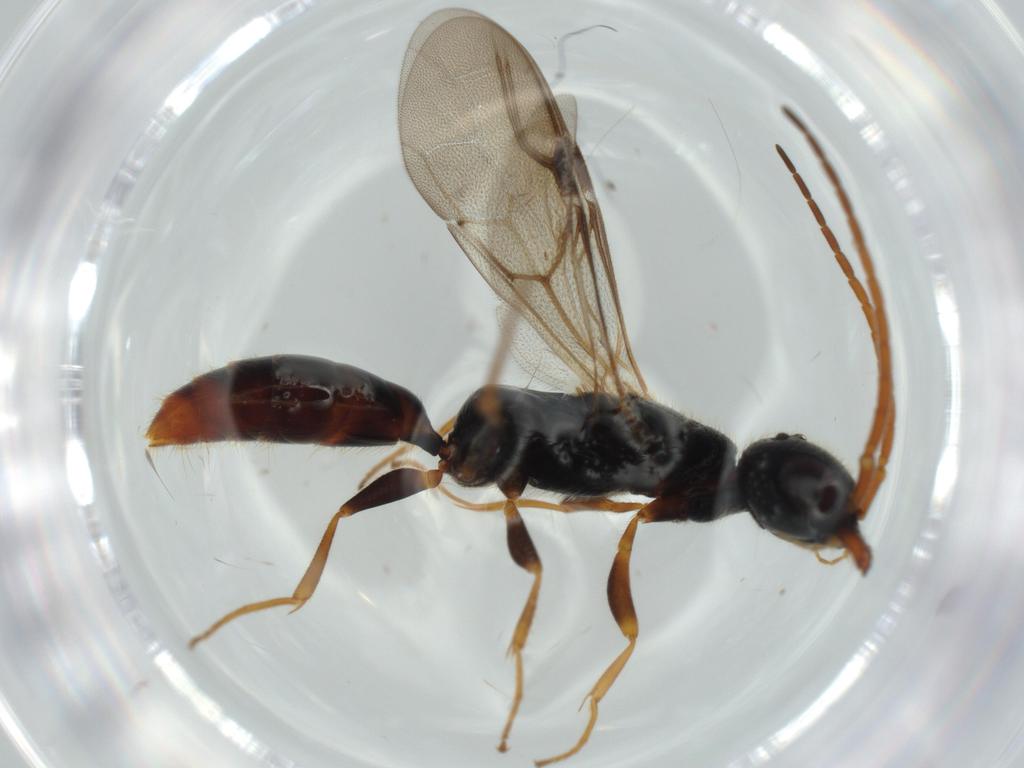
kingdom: Animalia
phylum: Arthropoda
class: Insecta
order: Hymenoptera
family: Bethylidae
